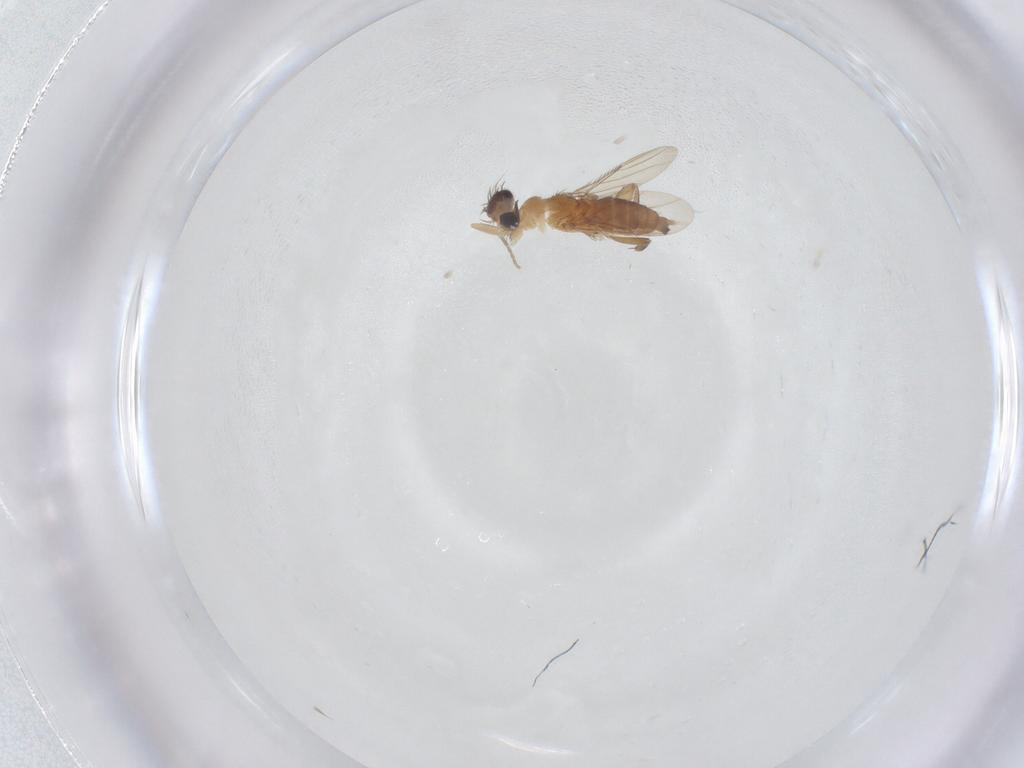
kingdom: Animalia
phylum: Arthropoda
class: Insecta
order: Diptera
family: Phoridae
